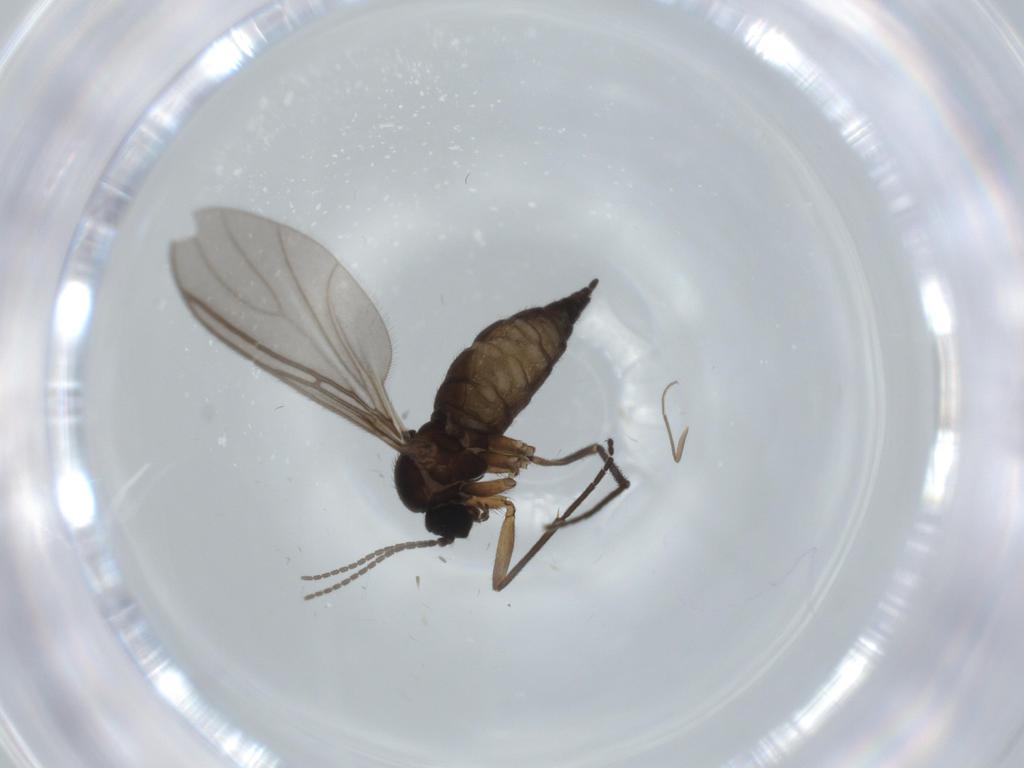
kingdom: Animalia
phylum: Arthropoda
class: Insecta
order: Diptera
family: Sciaridae
